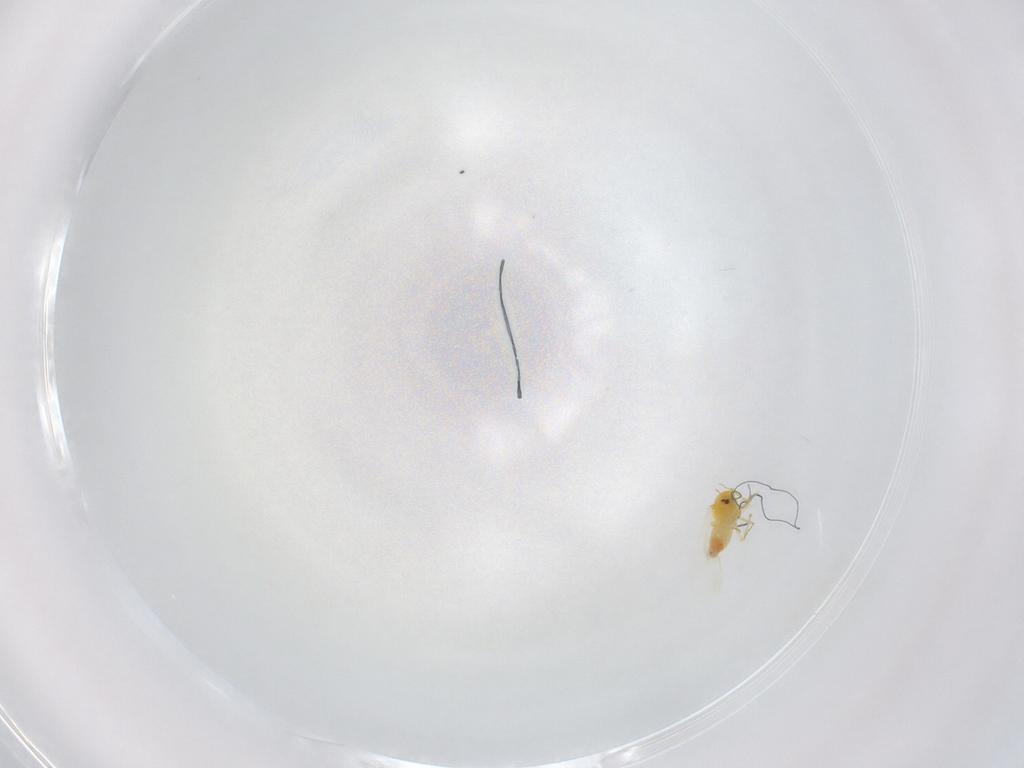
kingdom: Animalia
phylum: Arthropoda
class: Insecta
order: Hemiptera
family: Aleyrodidae
